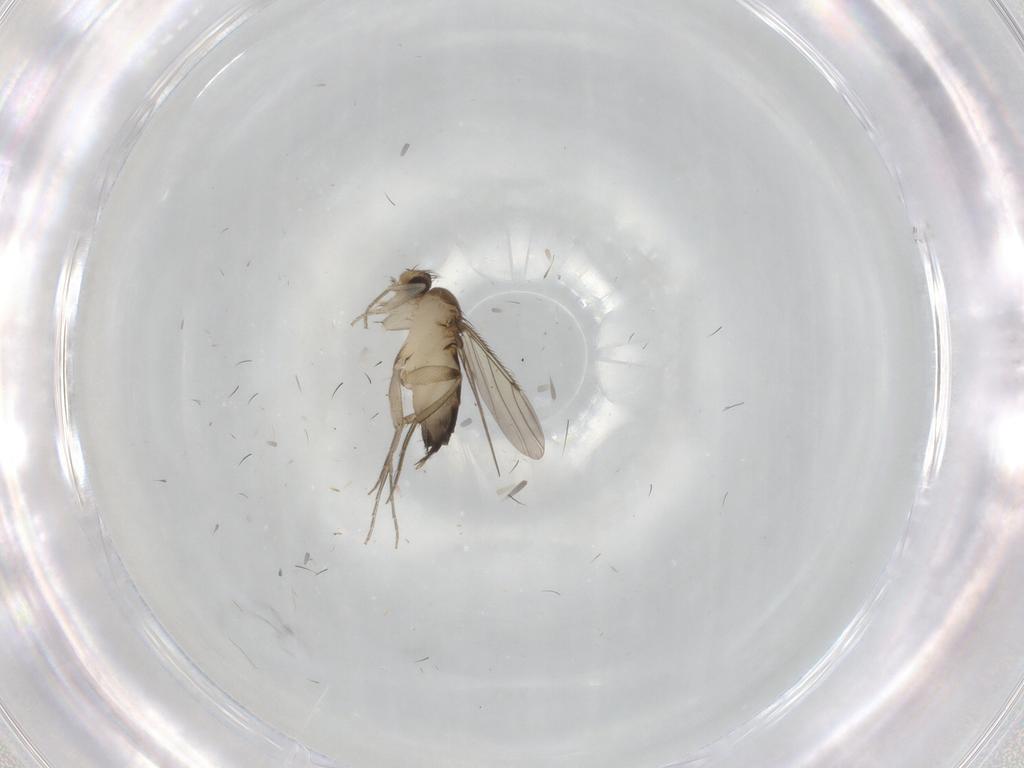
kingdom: Animalia
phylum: Arthropoda
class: Insecta
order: Diptera
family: Phoridae
